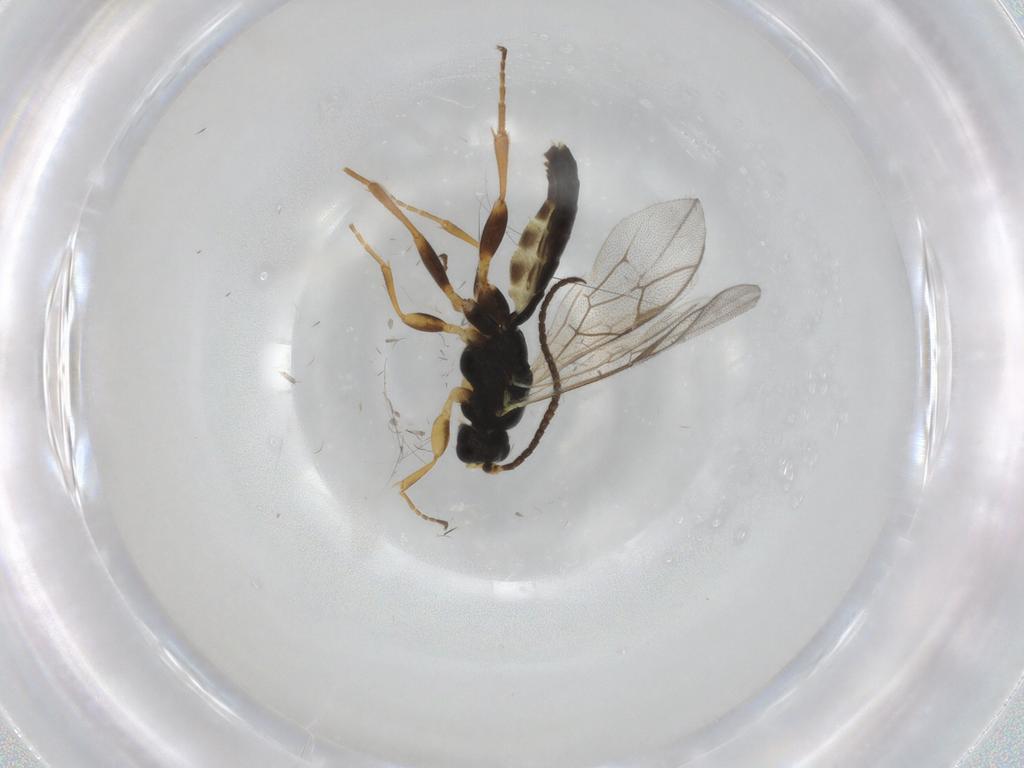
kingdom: Animalia
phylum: Arthropoda
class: Insecta
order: Hymenoptera
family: Ichneumonidae
